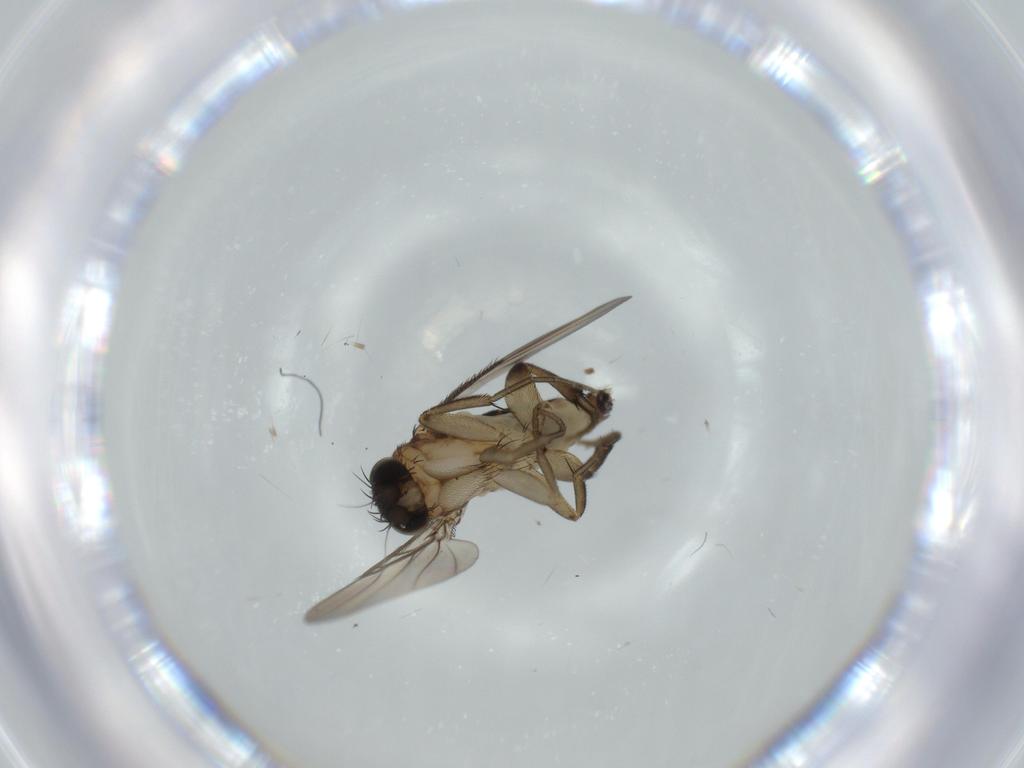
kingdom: Animalia
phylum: Arthropoda
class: Insecta
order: Diptera
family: Phoridae
